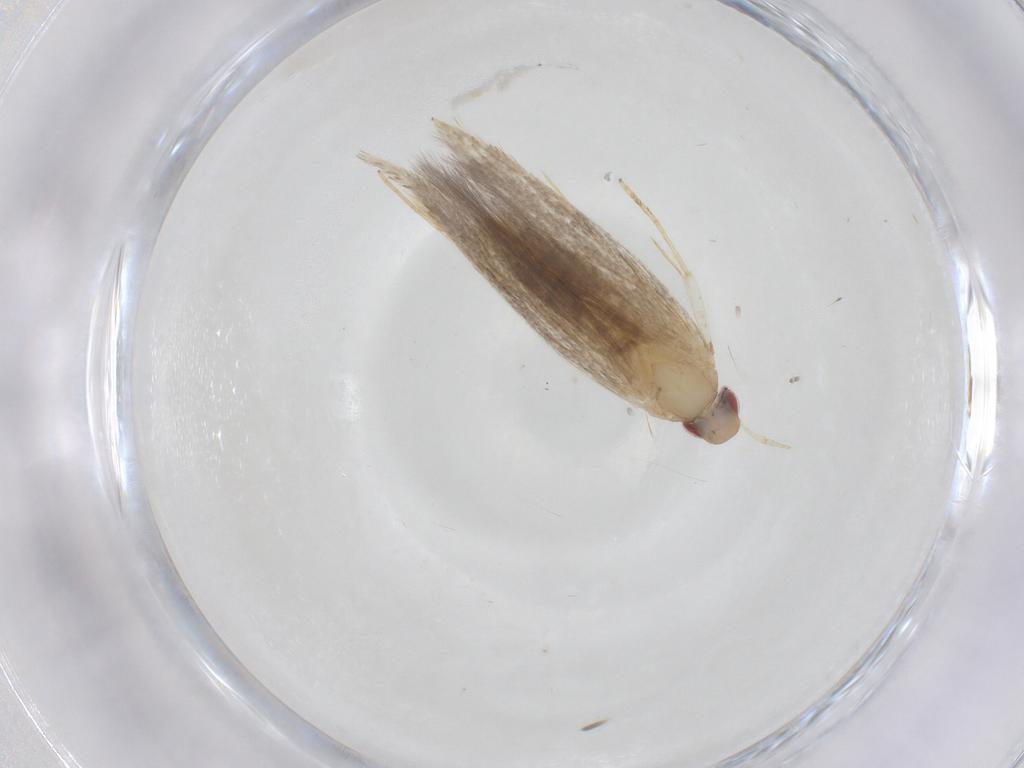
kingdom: Animalia
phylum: Arthropoda
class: Insecta
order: Lepidoptera
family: Cosmopterigidae
